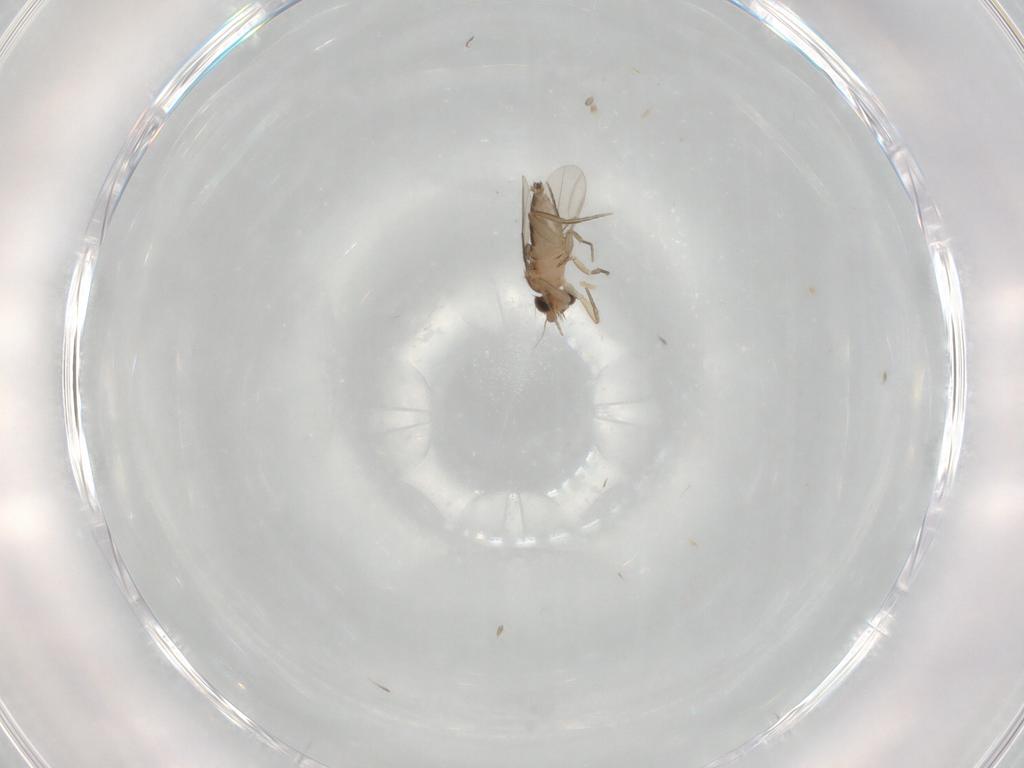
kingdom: Animalia
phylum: Arthropoda
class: Insecta
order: Diptera
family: Phoridae
